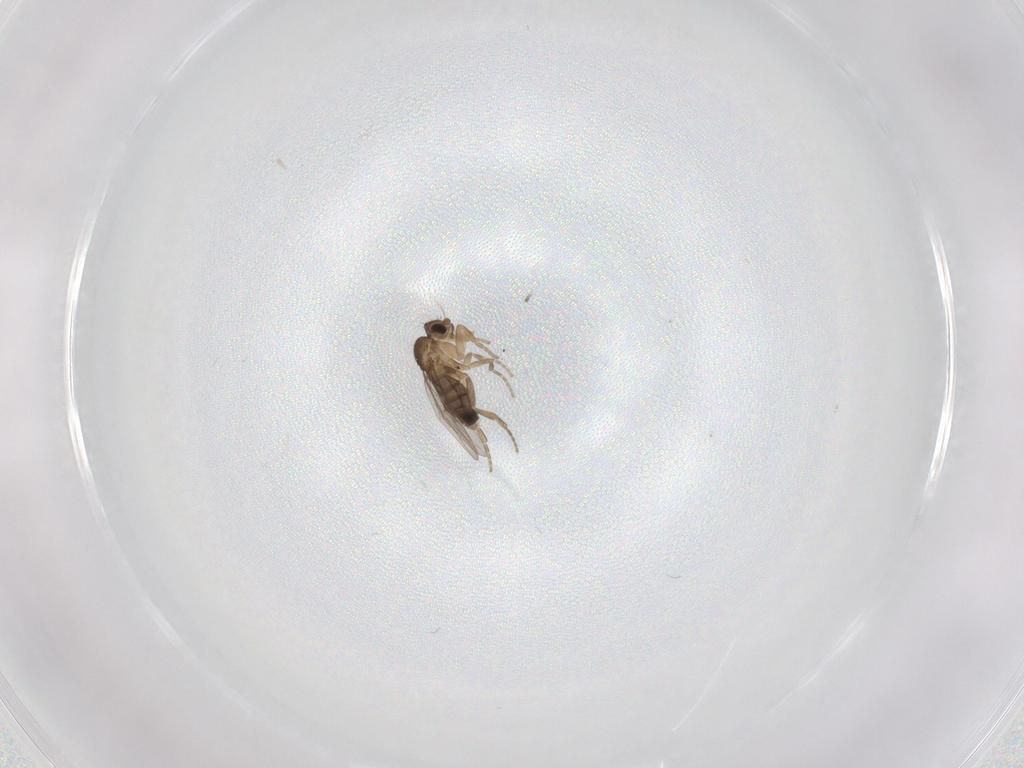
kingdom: Animalia
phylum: Arthropoda
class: Insecta
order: Diptera
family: Phoridae
